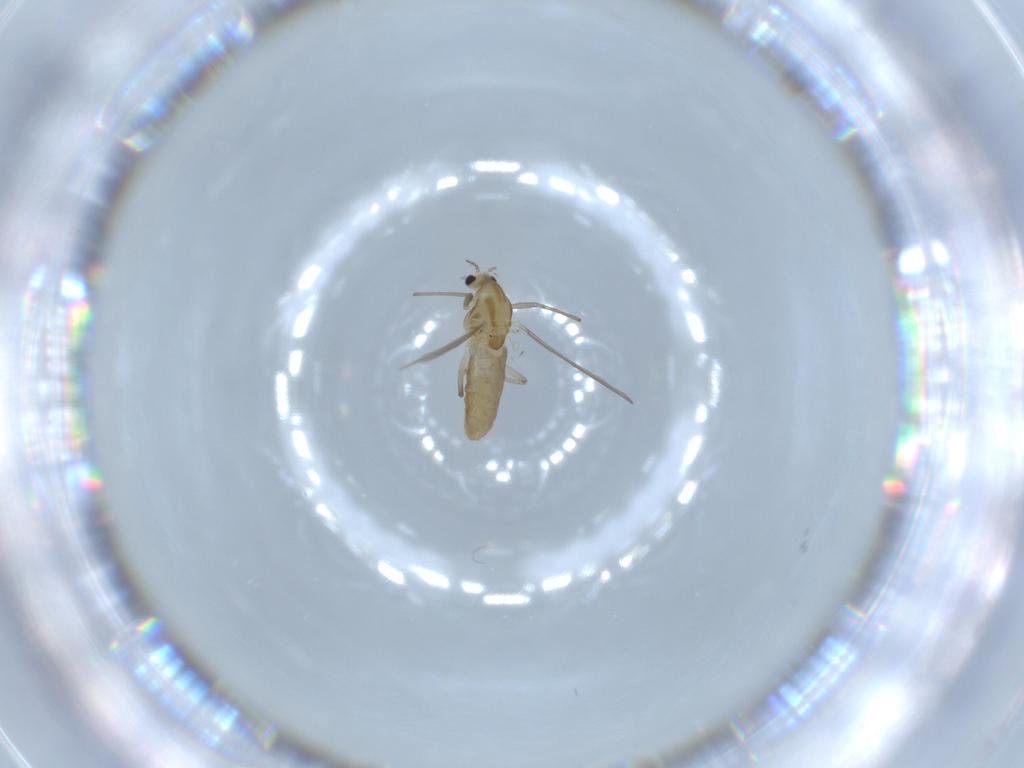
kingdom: Animalia
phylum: Arthropoda
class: Insecta
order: Diptera
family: Chironomidae
